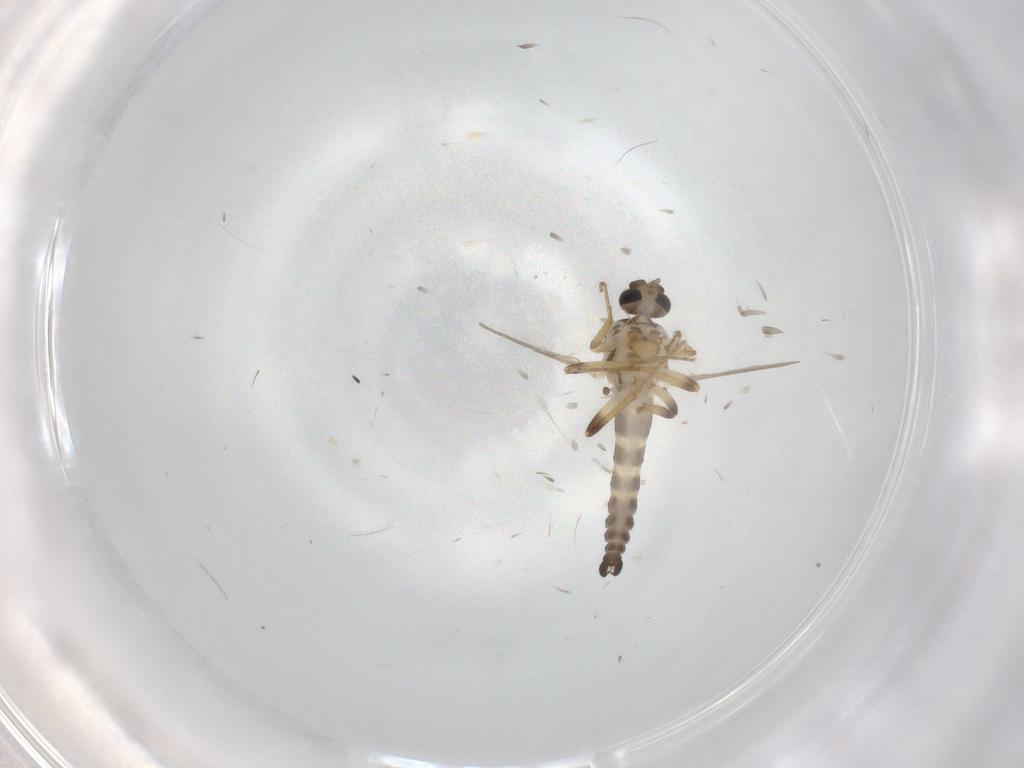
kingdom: Animalia
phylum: Arthropoda
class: Insecta
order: Diptera
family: Ceratopogonidae
